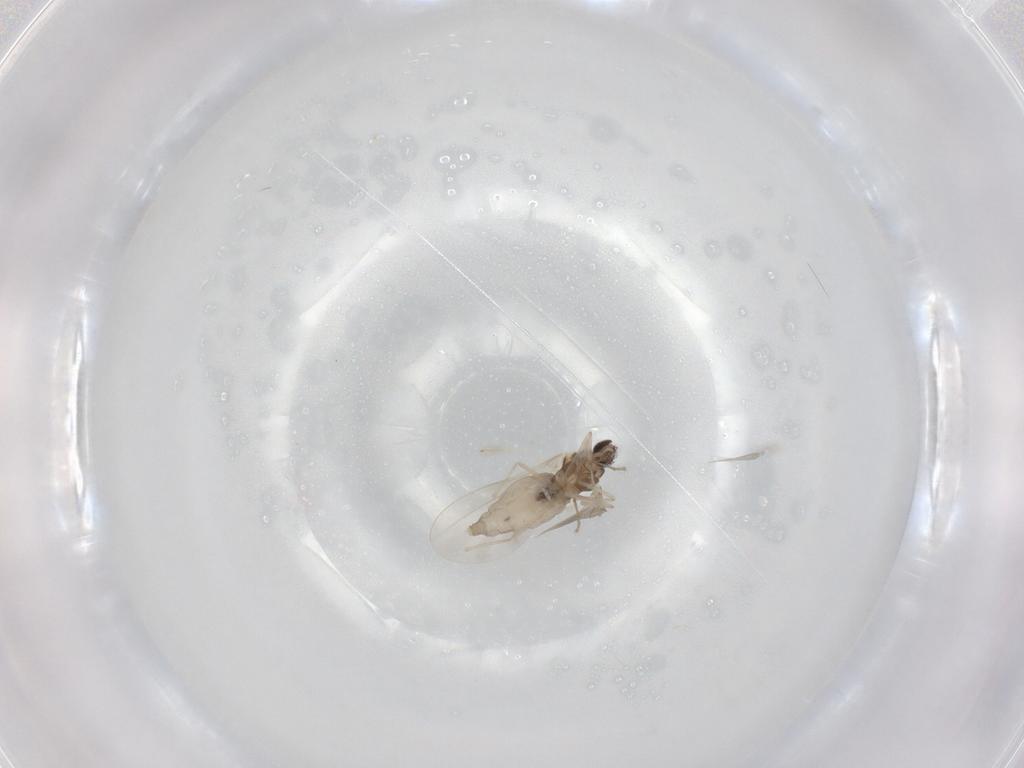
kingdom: Animalia
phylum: Arthropoda
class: Insecta
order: Diptera
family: Cecidomyiidae
